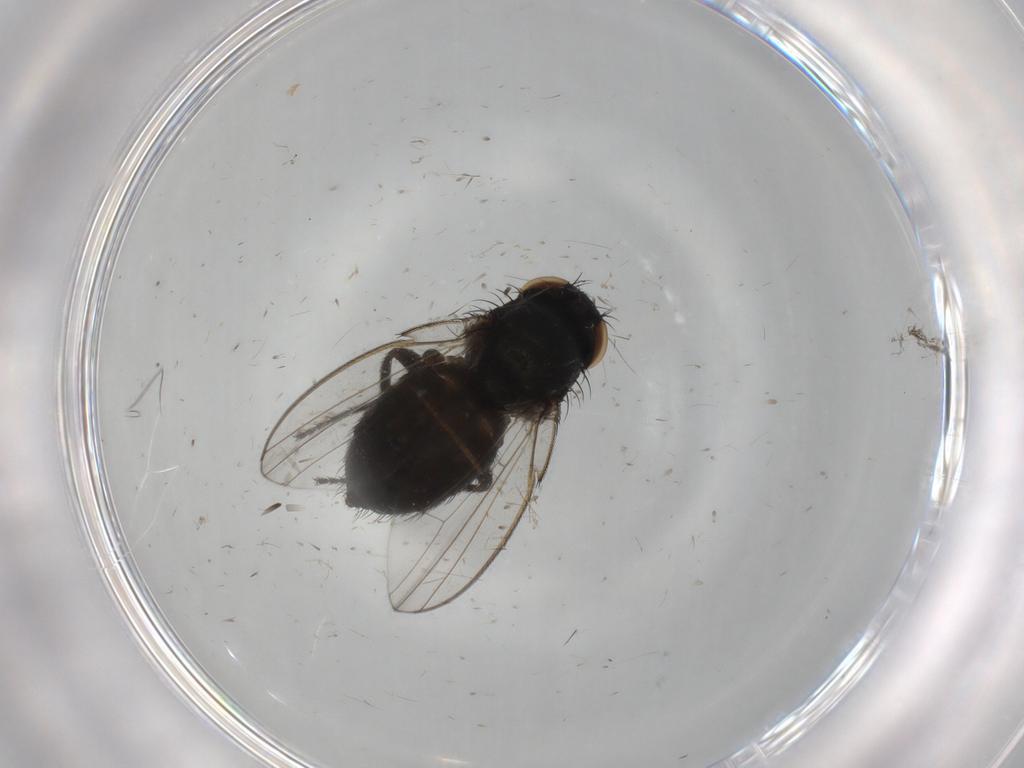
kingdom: Animalia
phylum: Arthropoda
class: Insecta
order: Diptera
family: Milichiidae
